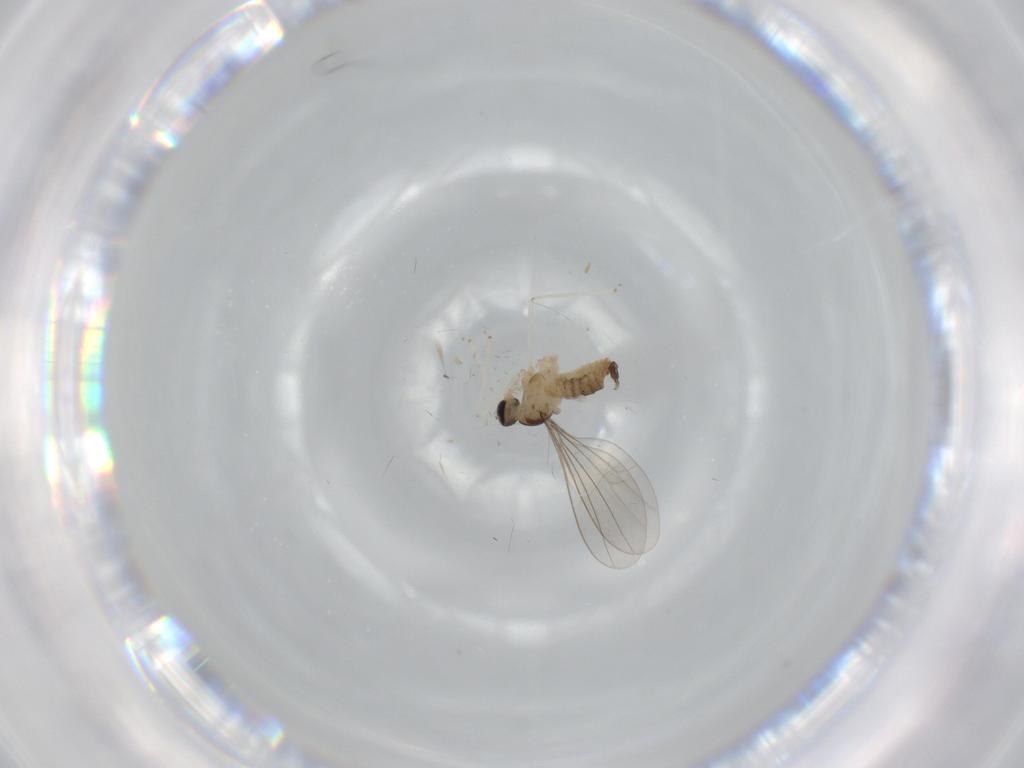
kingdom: Animalia
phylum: Arthropoda
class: Insecta
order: Diptera
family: Cecidomyiidae
